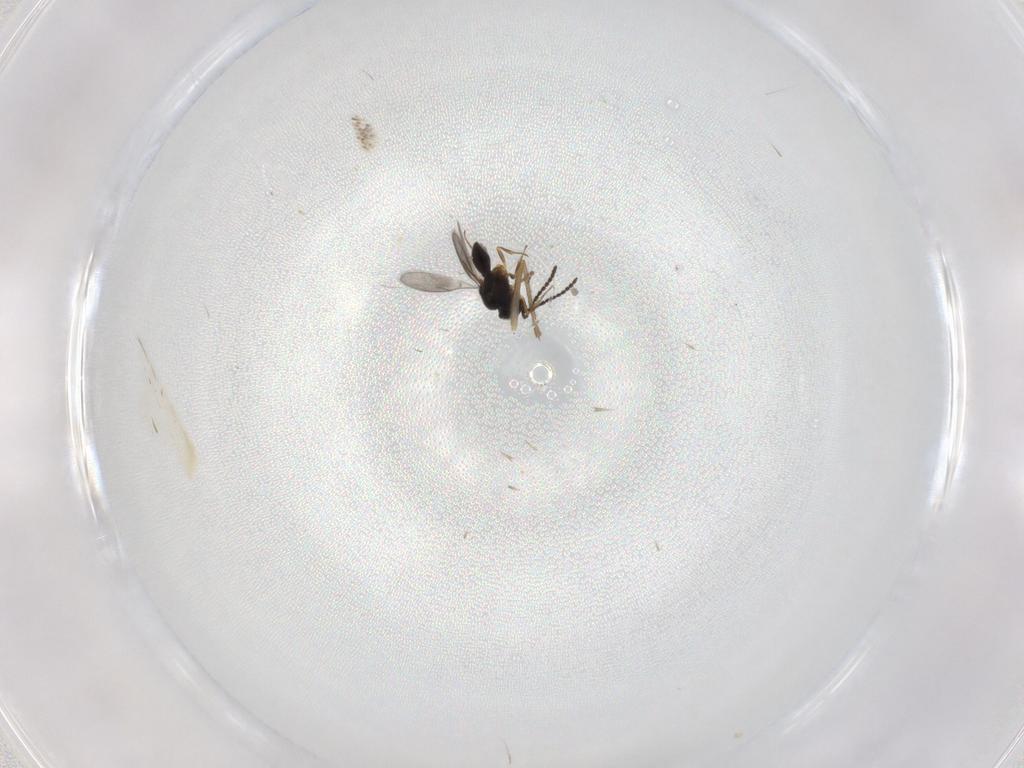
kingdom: Animalia
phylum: Arthropoda
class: Insecta
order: Hymenoptera
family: Scelionidae
